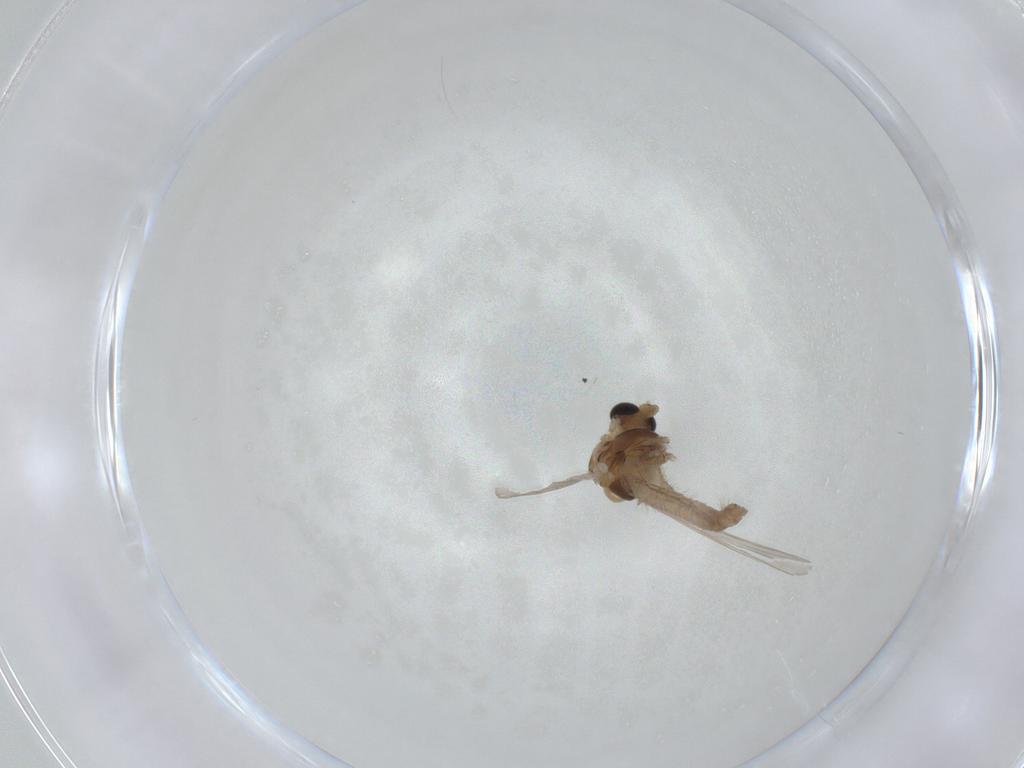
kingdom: Animalia
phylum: Arthropoda
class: Insecta
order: Diptera
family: Chironomidae
